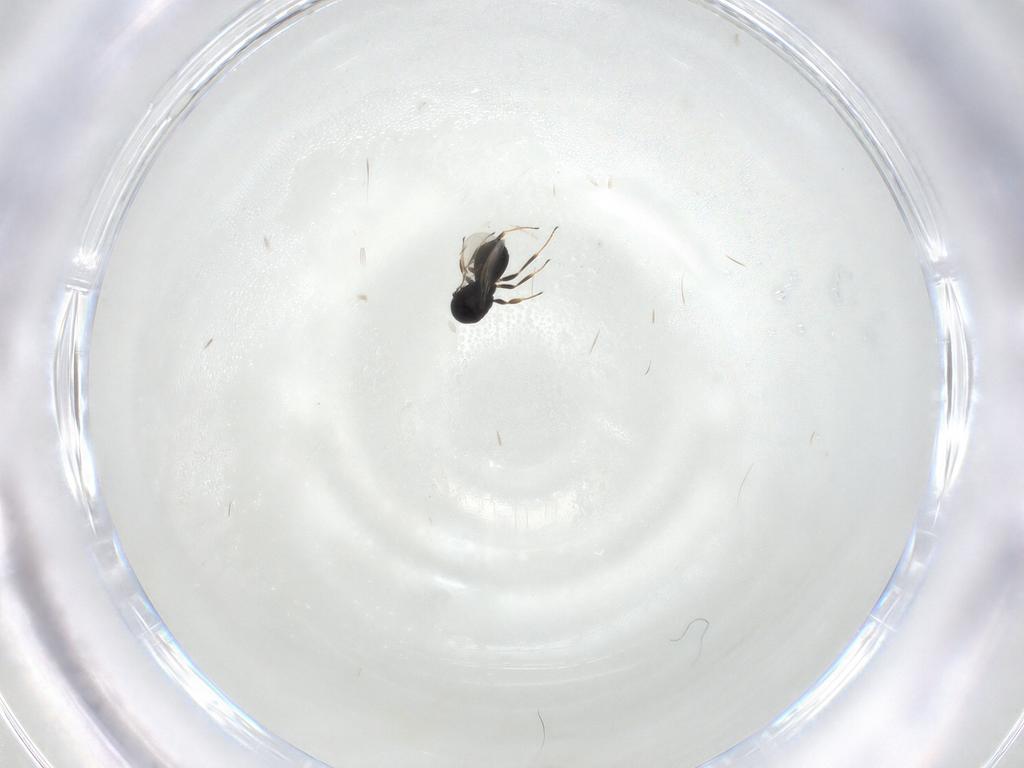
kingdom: Animalia
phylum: Arthropoda
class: Insecta
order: Hymenoptera
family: Scelionidae
